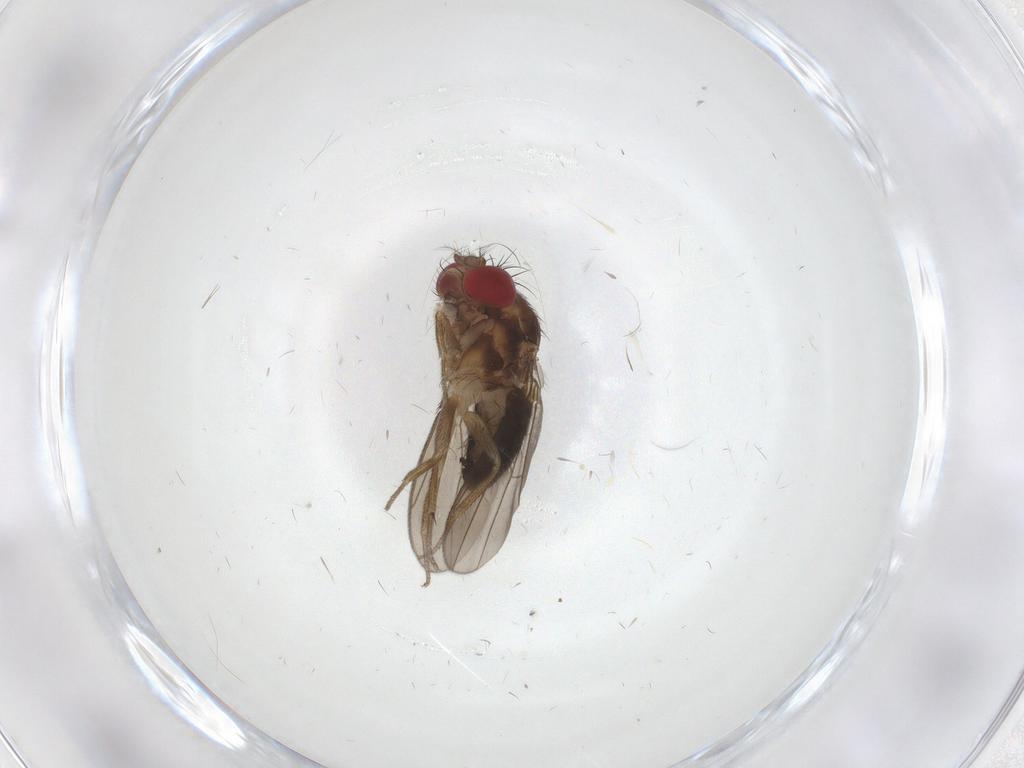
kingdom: Animalia
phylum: Arthropoda
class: Insecta
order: Diptera
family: Drosophilidae
